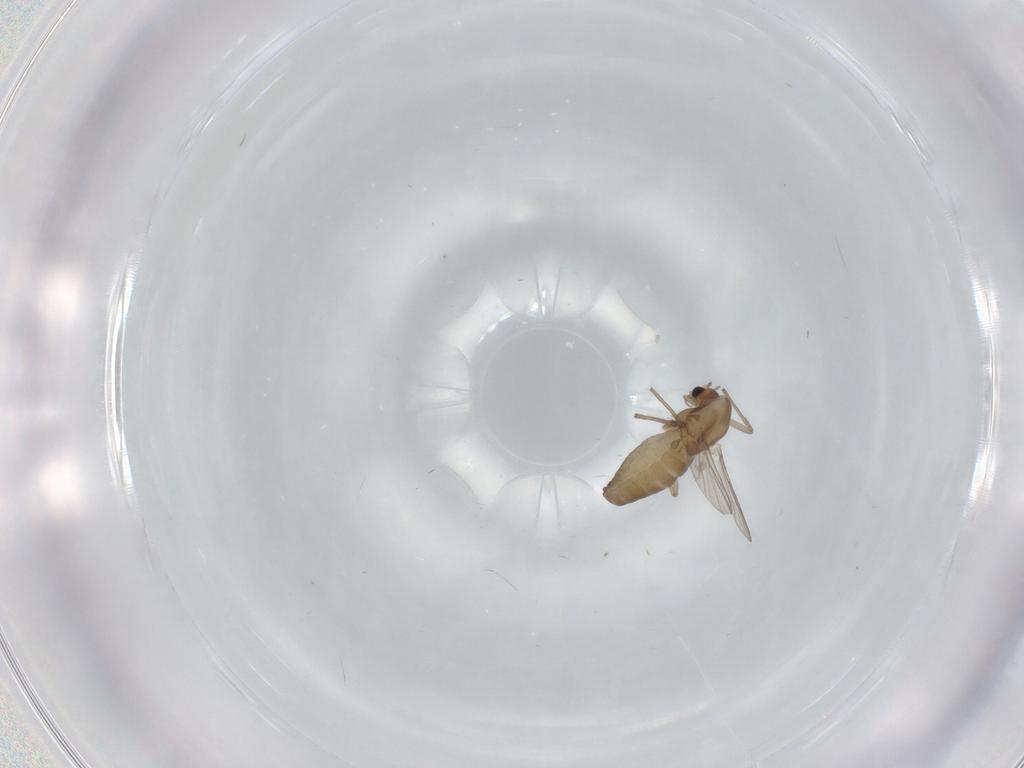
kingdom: Animalia
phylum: Arthropoda
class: Insecta
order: Diptera
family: Chironomidae
